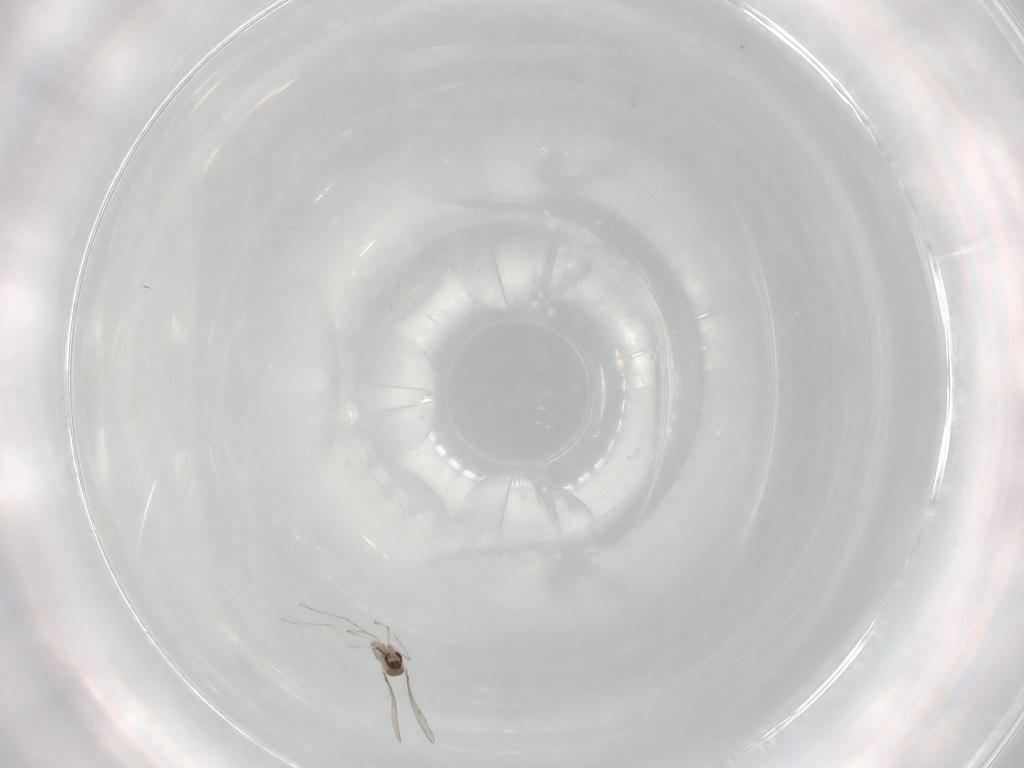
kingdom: Animalia
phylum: Arthropoda
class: Insecta
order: Diptera
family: Cecidomyiidae
